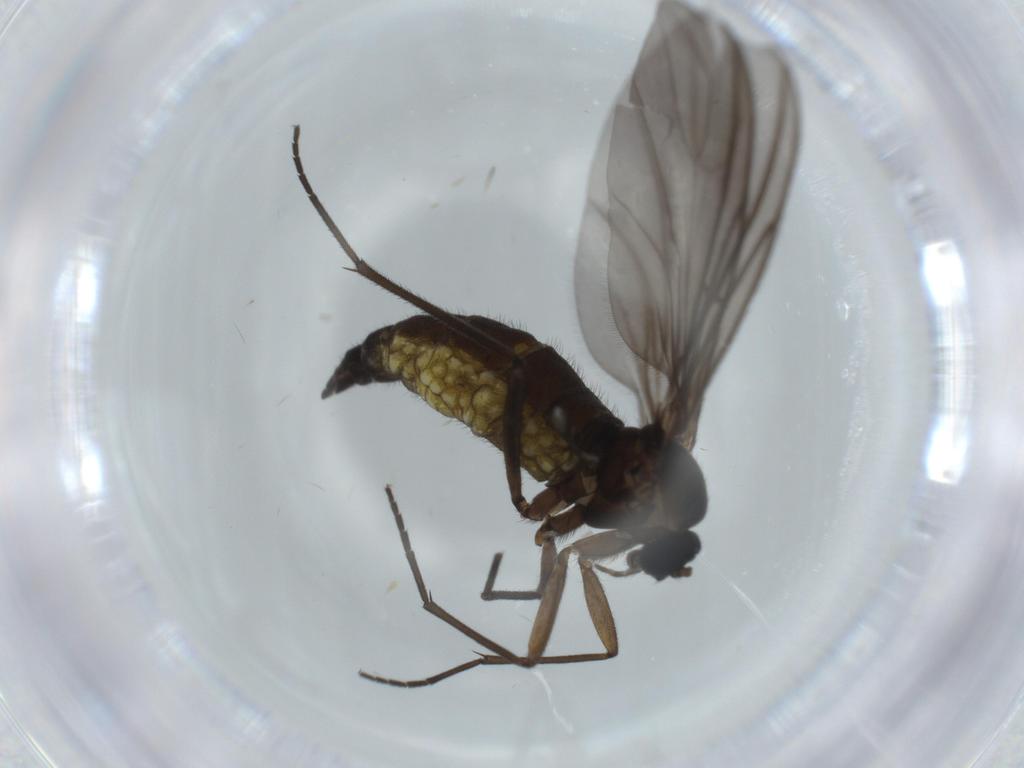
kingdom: Animalia
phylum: Arthropoda
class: Insecta
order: Diptera
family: Sciaridae
